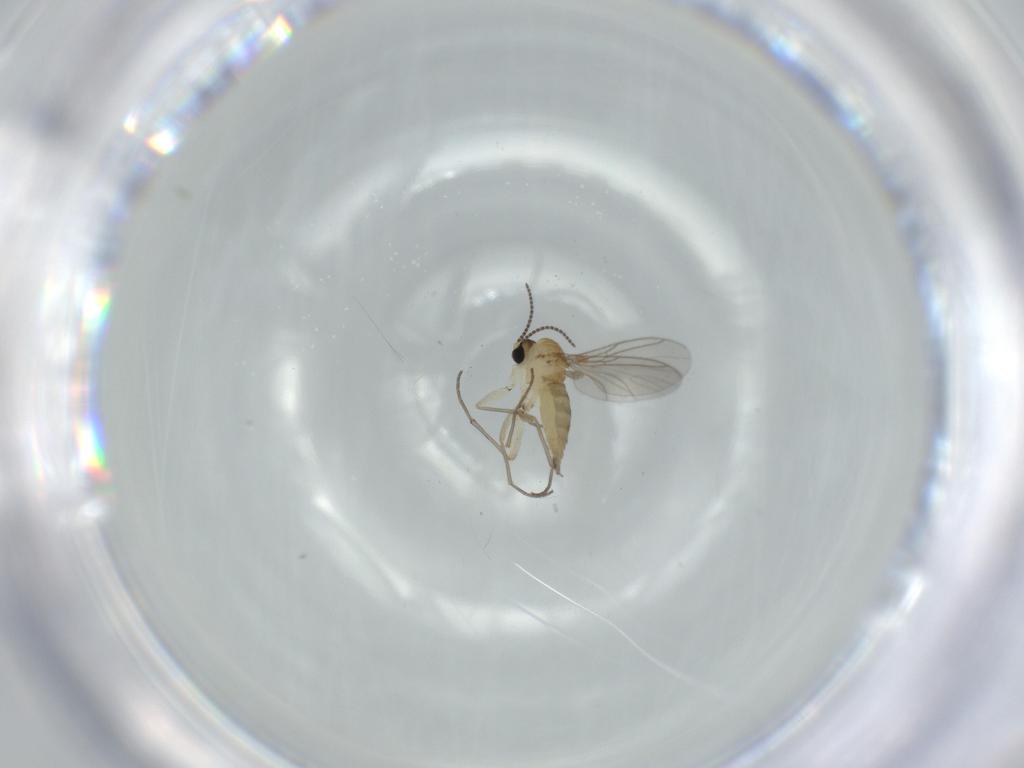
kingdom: Animalia
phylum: Arthropoda
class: Insecta
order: Diptera
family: Sciaridae
